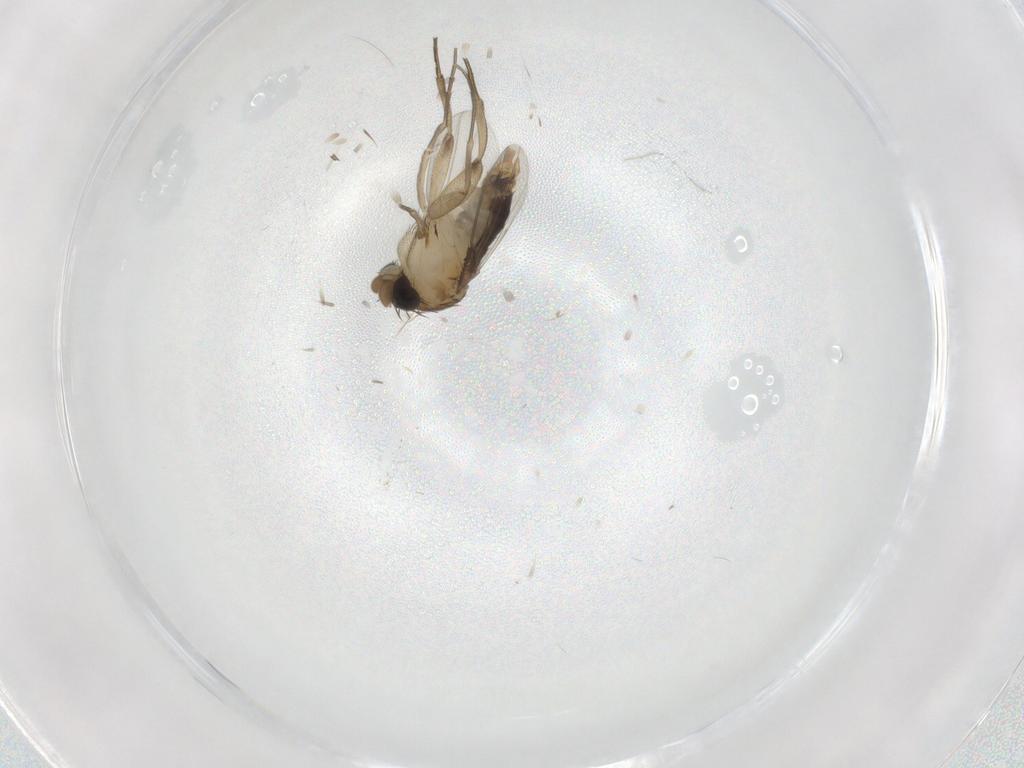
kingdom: Animalia
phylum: Arthropoda
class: Insecta
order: Diptera
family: Phoridae
